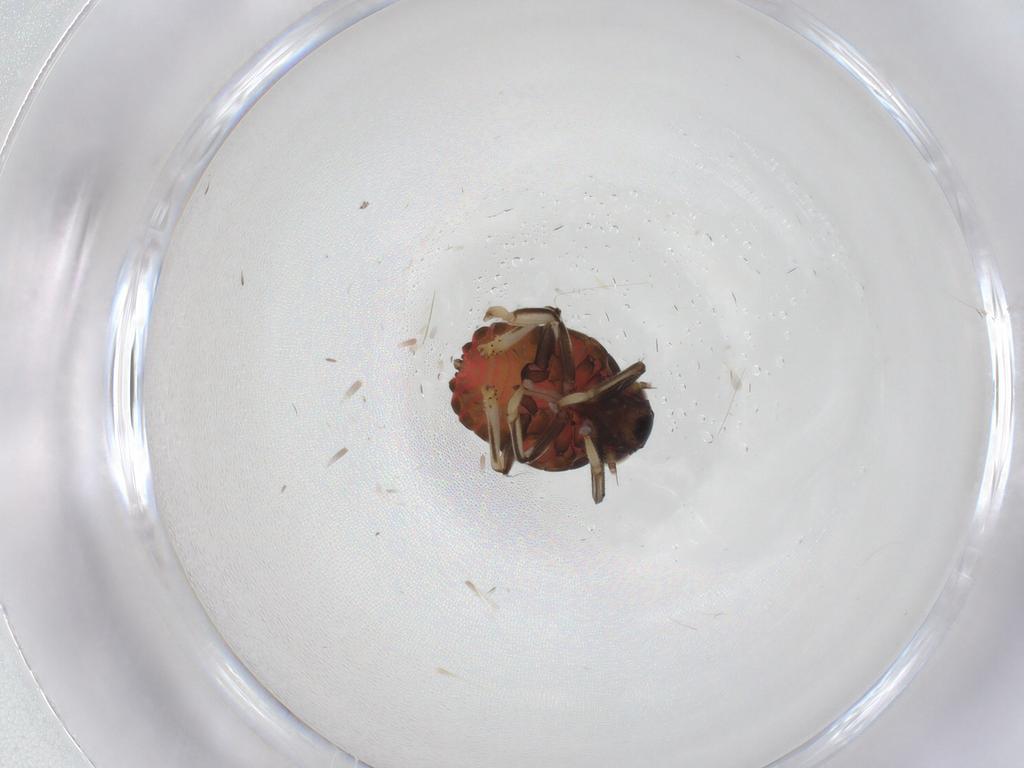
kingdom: Animalia
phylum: Arthropoda
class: Insecta
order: Hemiptera
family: Issidae
